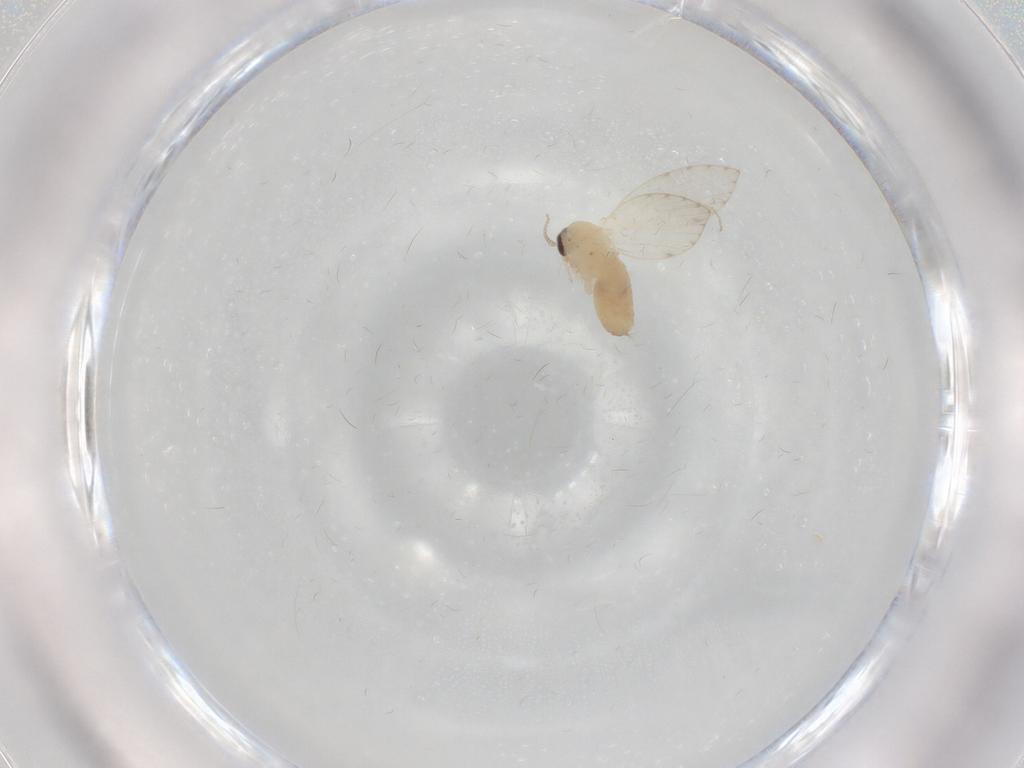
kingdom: Animalia
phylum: Arthropoda
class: Insecta
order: Diptera
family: Psychodidae
